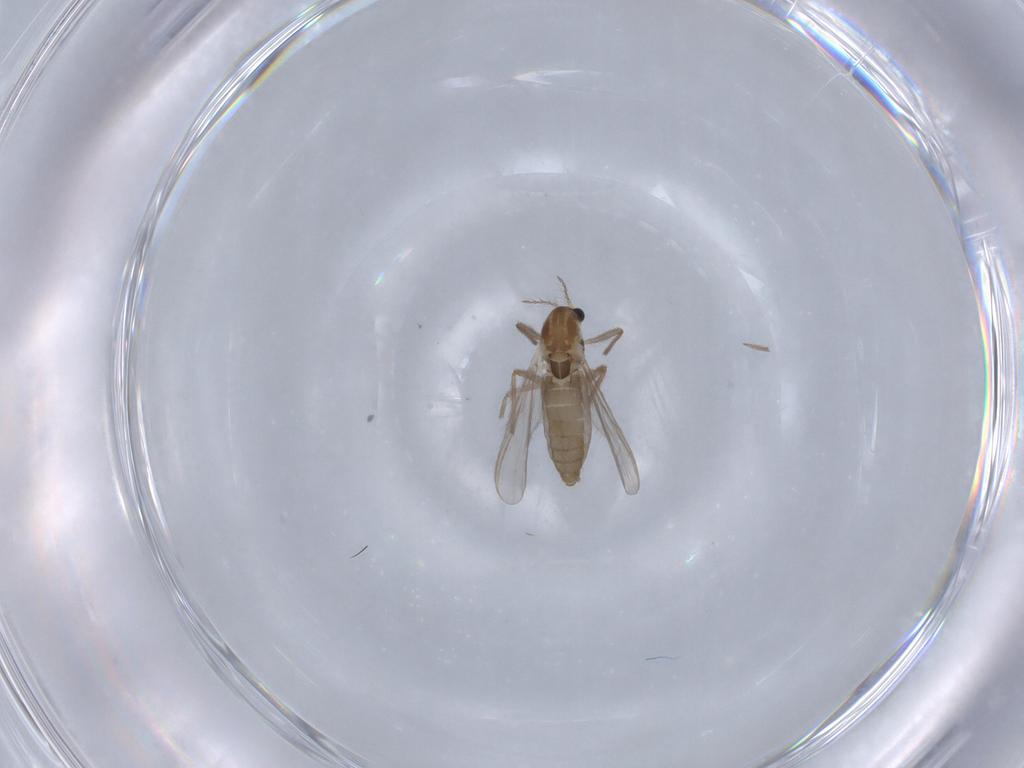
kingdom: Animalia
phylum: Arthropoda
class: Insecta
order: Diptera
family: Chironomidae
